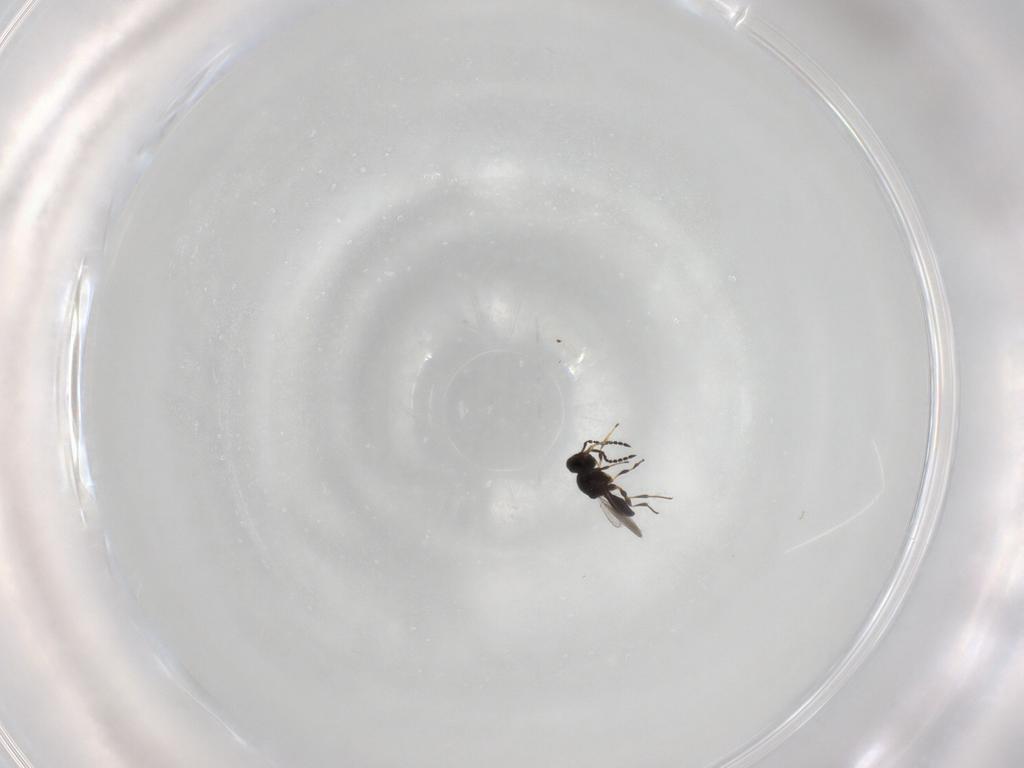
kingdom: Animalia
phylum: Arthropoda
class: Insecta
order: Hymenoptera
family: Platygastridae
